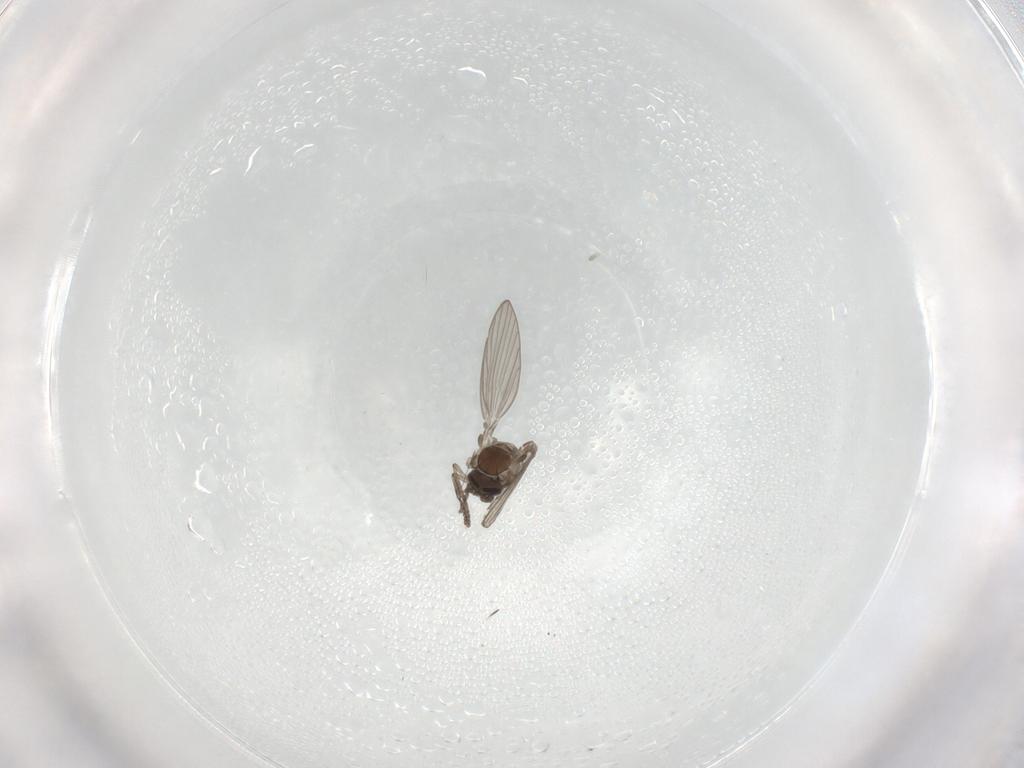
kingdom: Animalia
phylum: Arthropoda
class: Insecta
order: Diptera
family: Psychodidae
